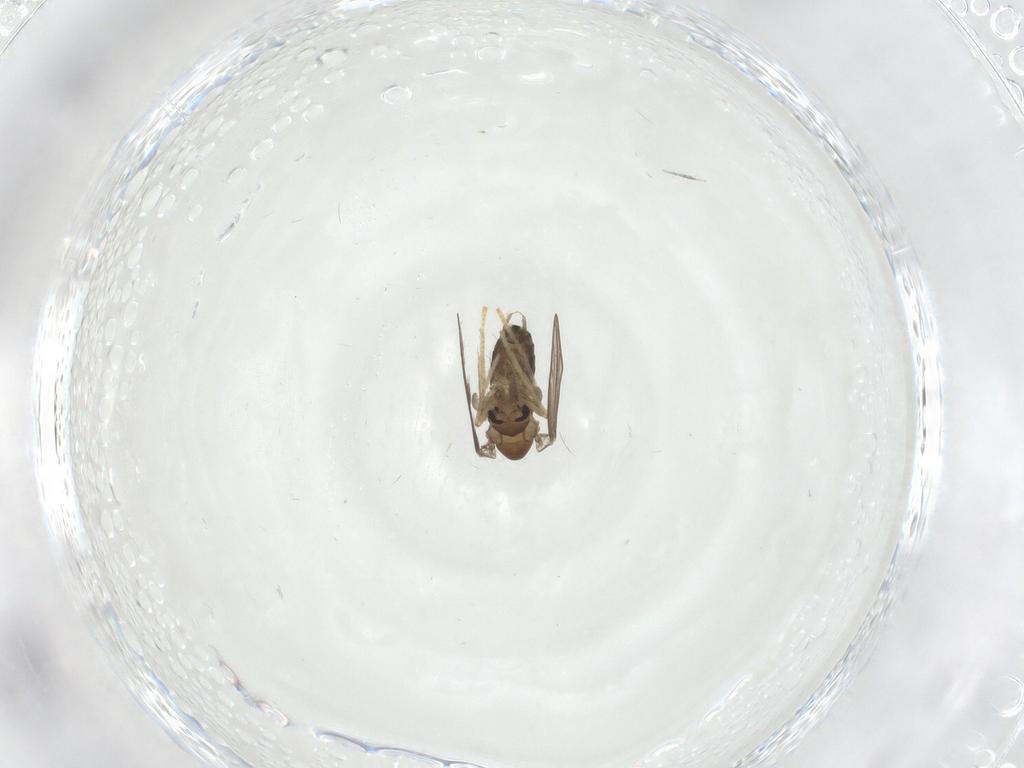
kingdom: Animalia
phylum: Arthropoda
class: Insecta
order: Diptera
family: Psychodidae
